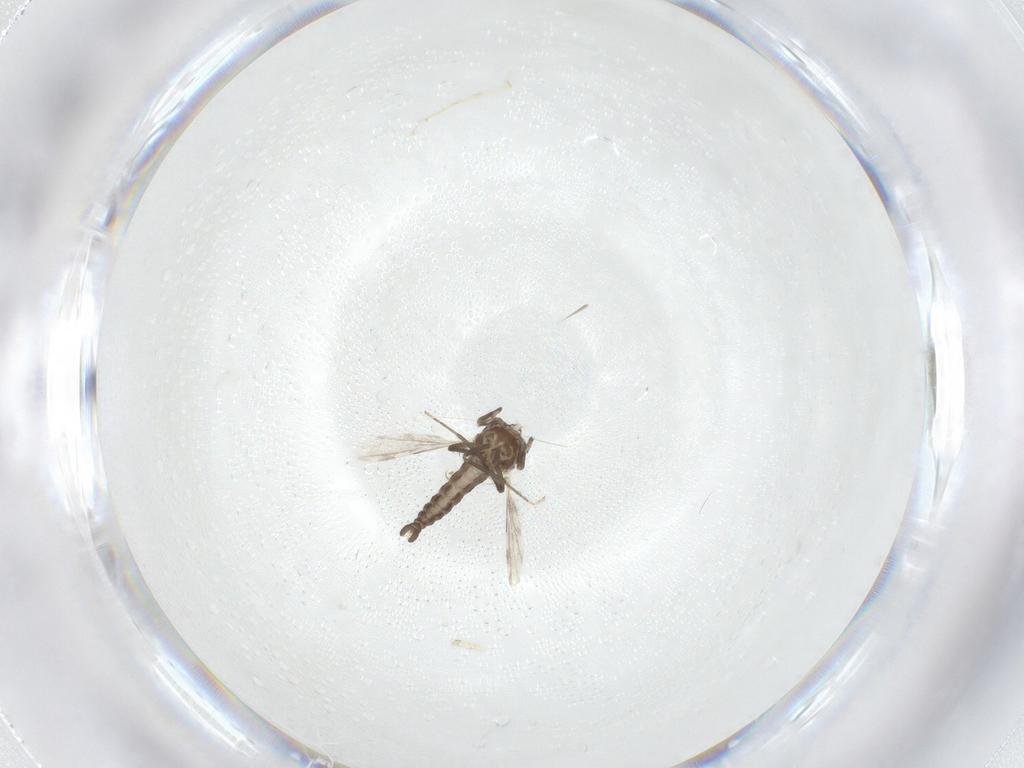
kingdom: Animalia
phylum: Arthropoda
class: Insecta
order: Diptera
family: Ceratopogonidae
